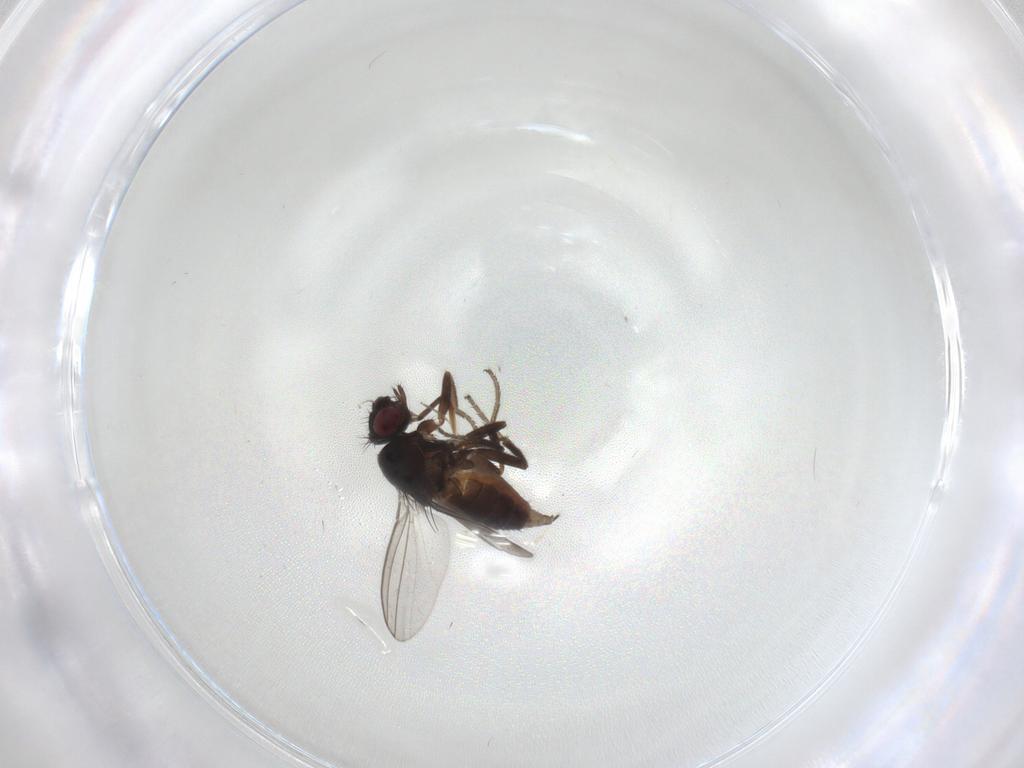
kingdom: Animalia
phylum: Arthropoda
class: Insecta
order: Diptera
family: Milichiidae
